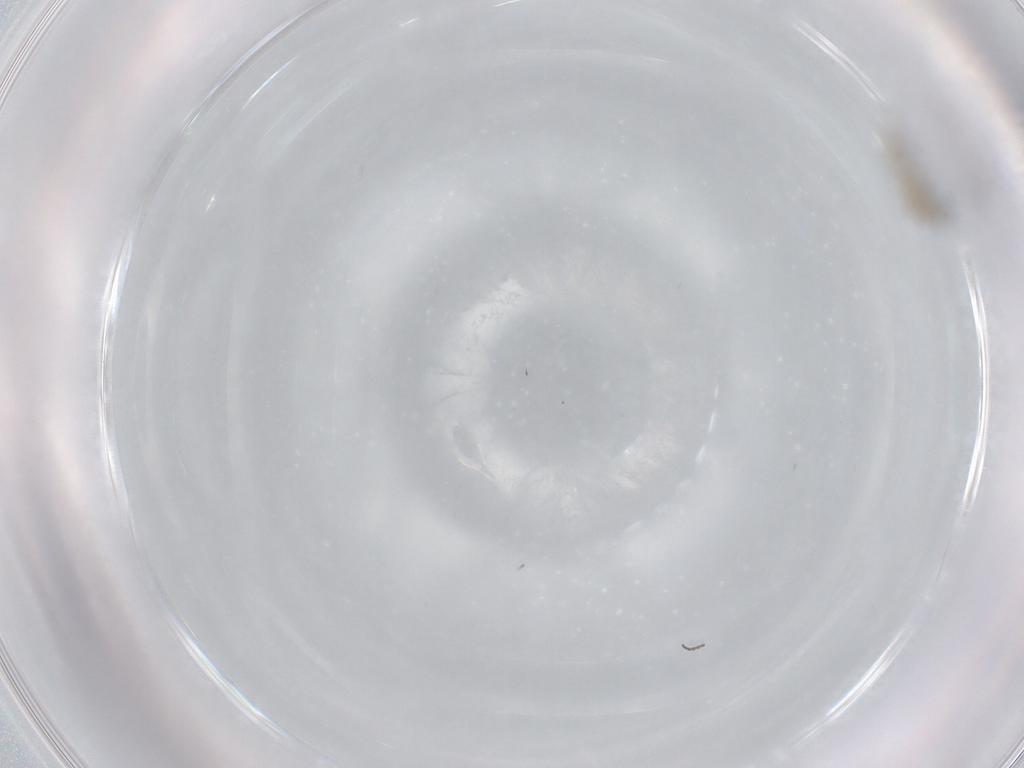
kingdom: Animalia
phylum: Arthropoda
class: Insecta
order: Diptera
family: Cecidomyiidae
